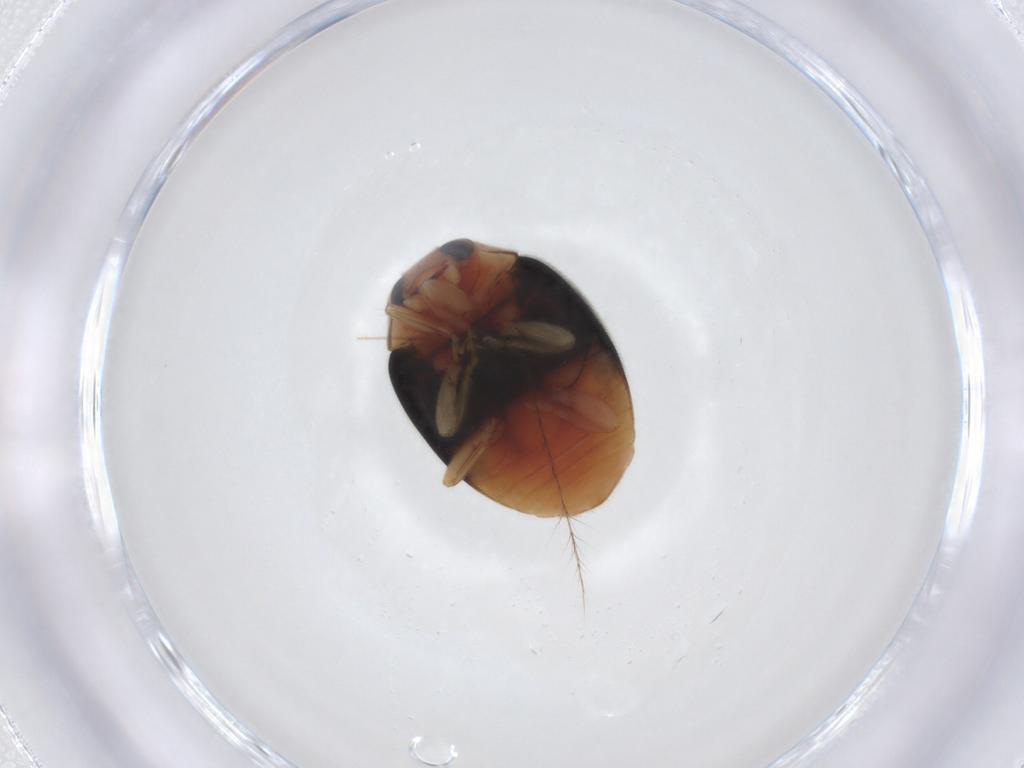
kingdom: Animalia
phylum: Arthropoda
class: Insecta
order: Coleoptera
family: Coccinellidae
